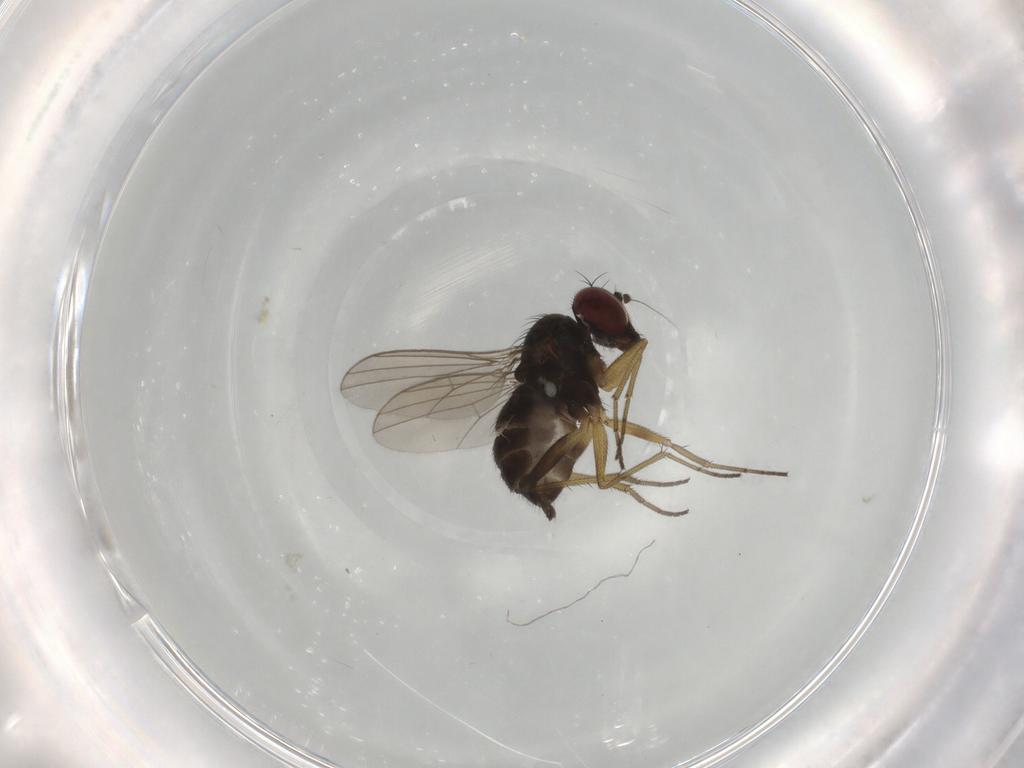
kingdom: Animalia
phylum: Arthropoda
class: Insecta
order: Diptera
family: Dolichopodidae
